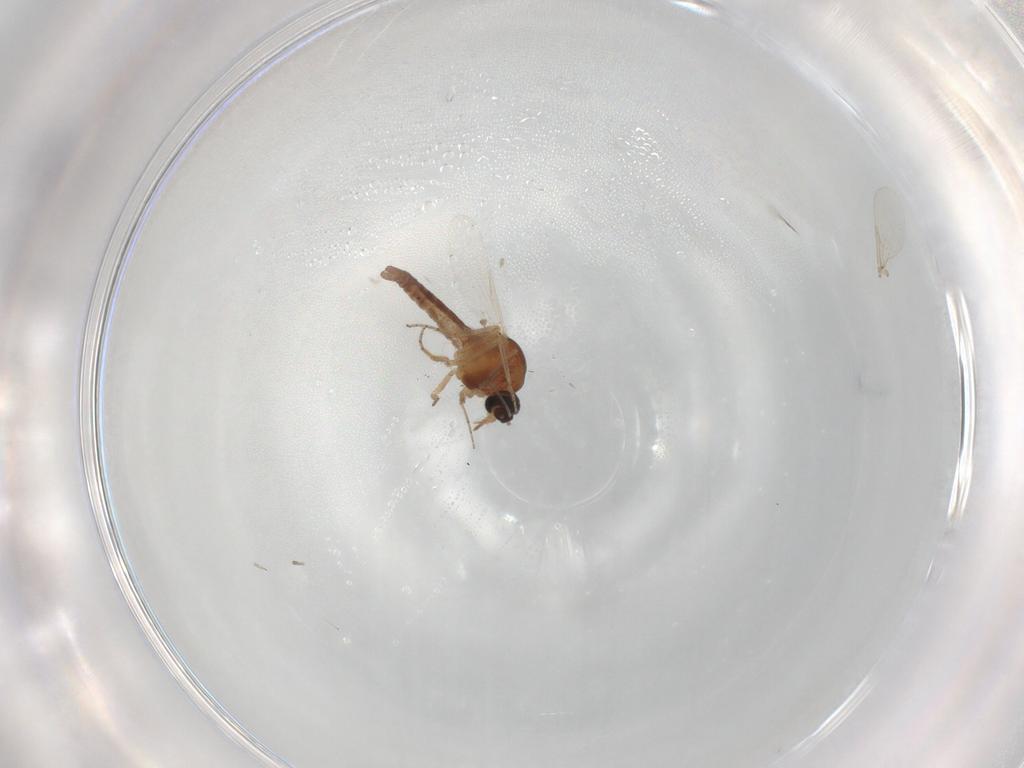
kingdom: Animalia
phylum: Arthropoda
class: Insecta
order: Diptera
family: Ceratopogonidae
